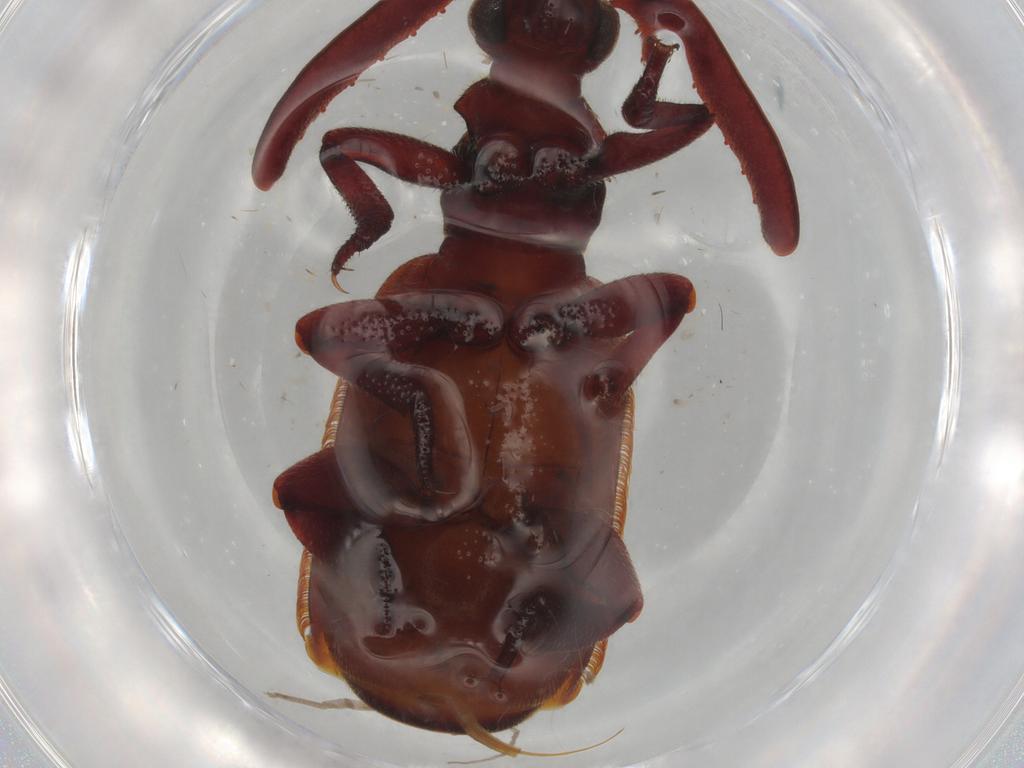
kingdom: Animalia
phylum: Arthropoda
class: Insecta
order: Coleoptera
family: Carabidae
